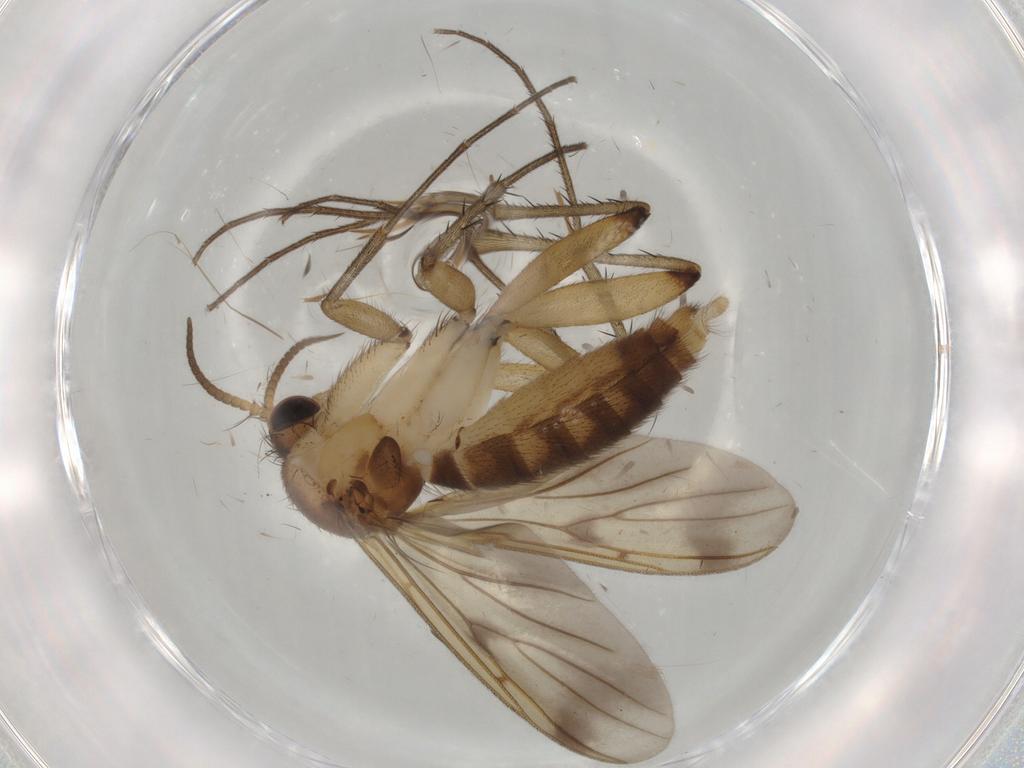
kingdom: Animalia
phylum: Arthropoda
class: Insecta
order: Diptera
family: Cecidomyiidae
